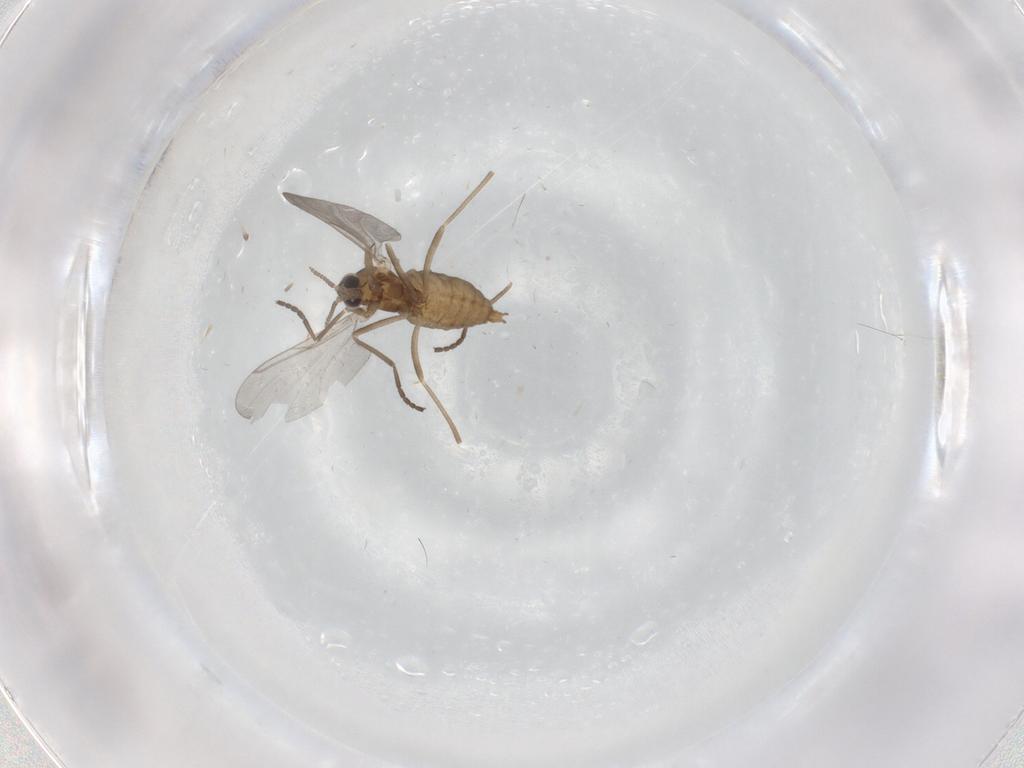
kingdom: Animalia
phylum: Arthropoda
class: Insecta
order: Diptera
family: Phoridae
